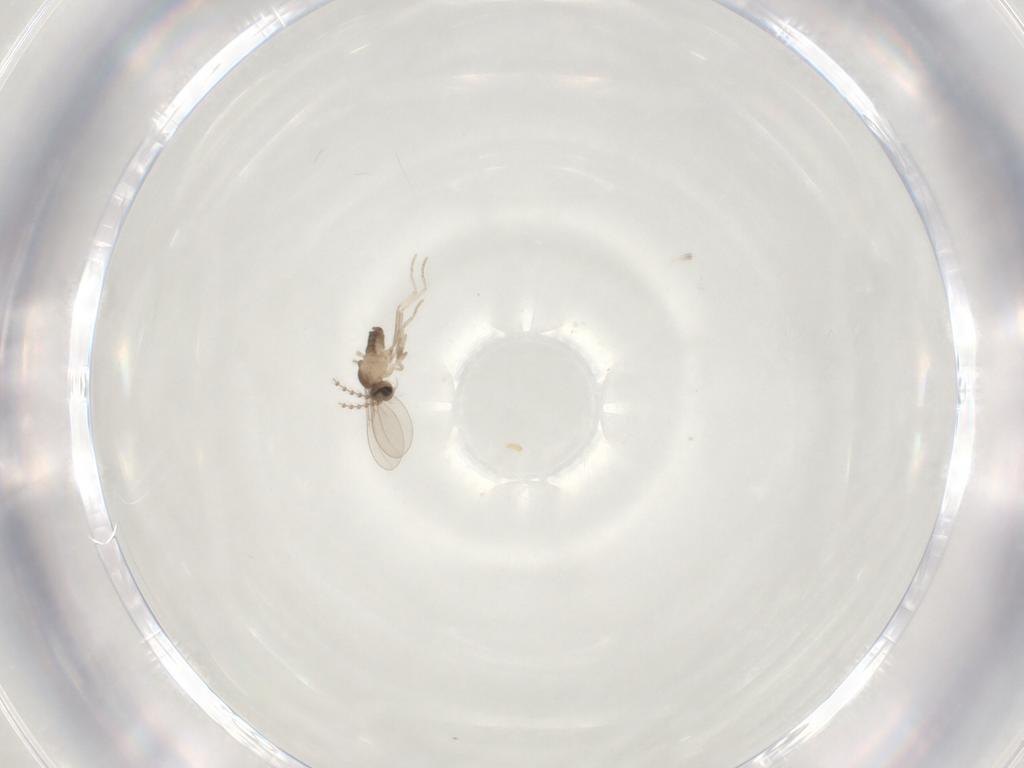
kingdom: Animalia
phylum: Arthropoda
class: Insecta
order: Diptera
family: Cecidomyiidae
